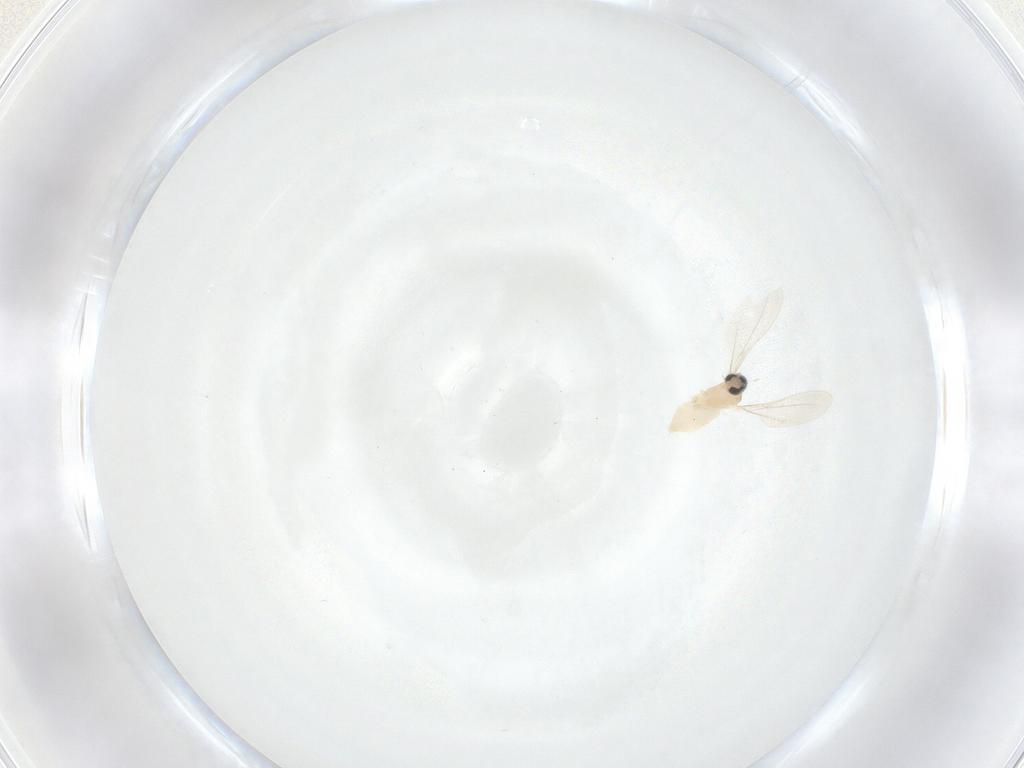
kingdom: Animalia
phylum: Arthropoda
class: Insecta
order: Diptera
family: Cecidomyiidae
